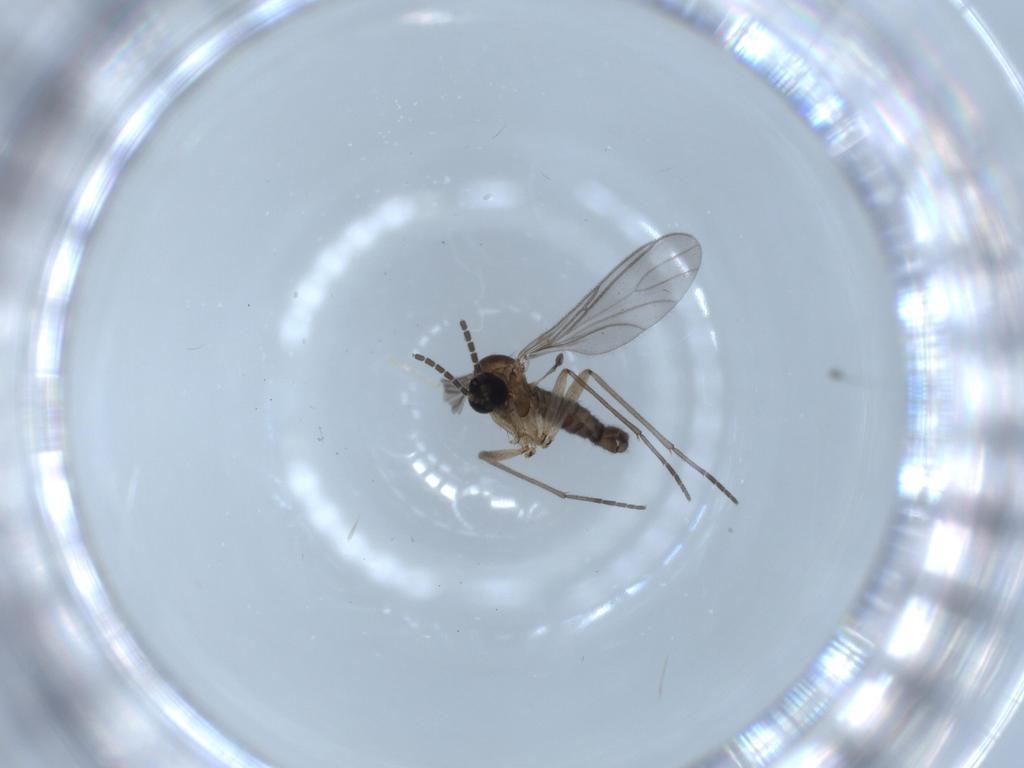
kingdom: Animalia
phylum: Arthropoda
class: Insecta
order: Diptera
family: Sciaridae
